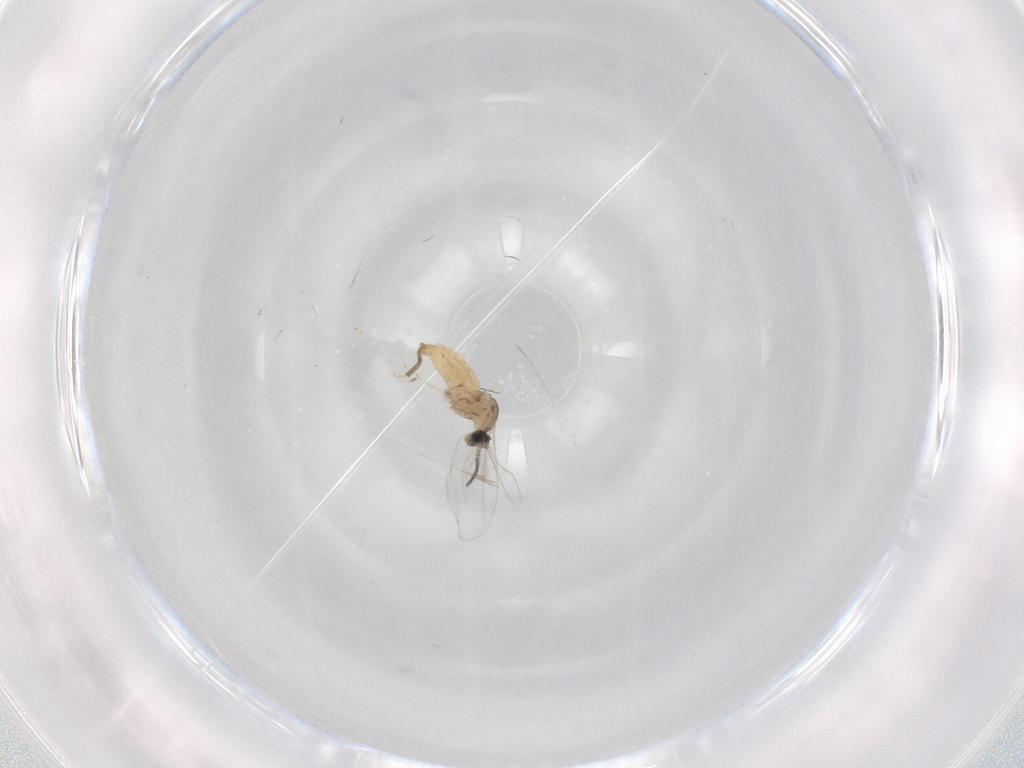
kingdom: Animalia
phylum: Arthropoda
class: Insecta
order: Diptera
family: Cecidomyiidae
